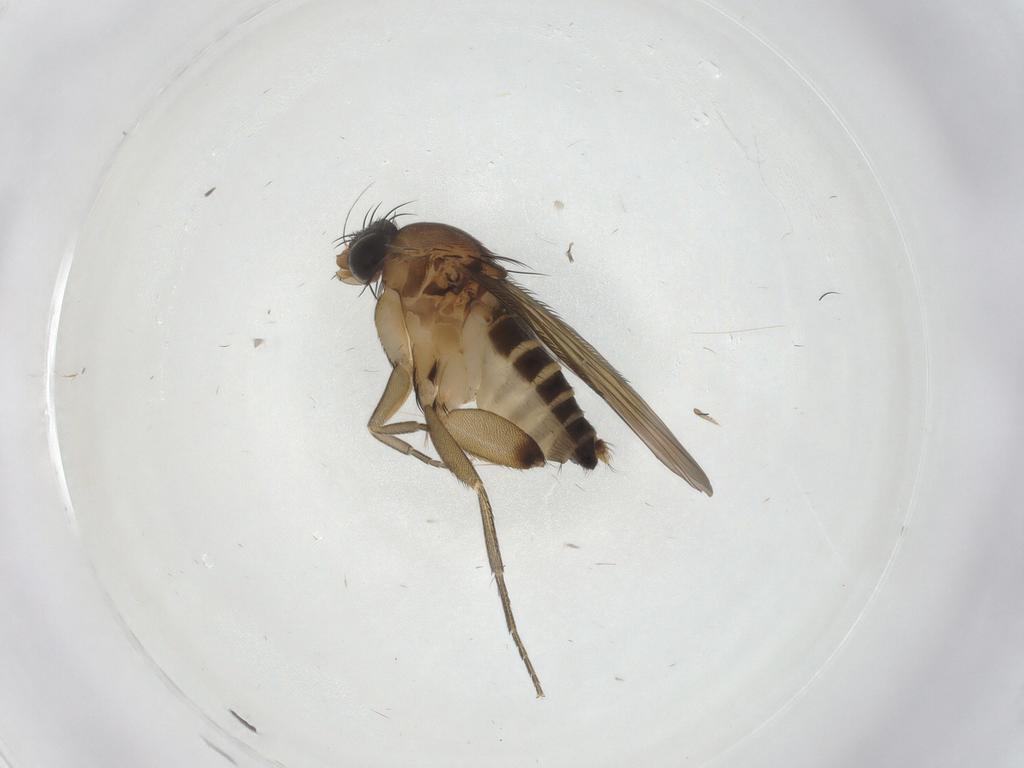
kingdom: Animalia
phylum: Arthropoda
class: Insecta
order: Diptera
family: Phoridae
